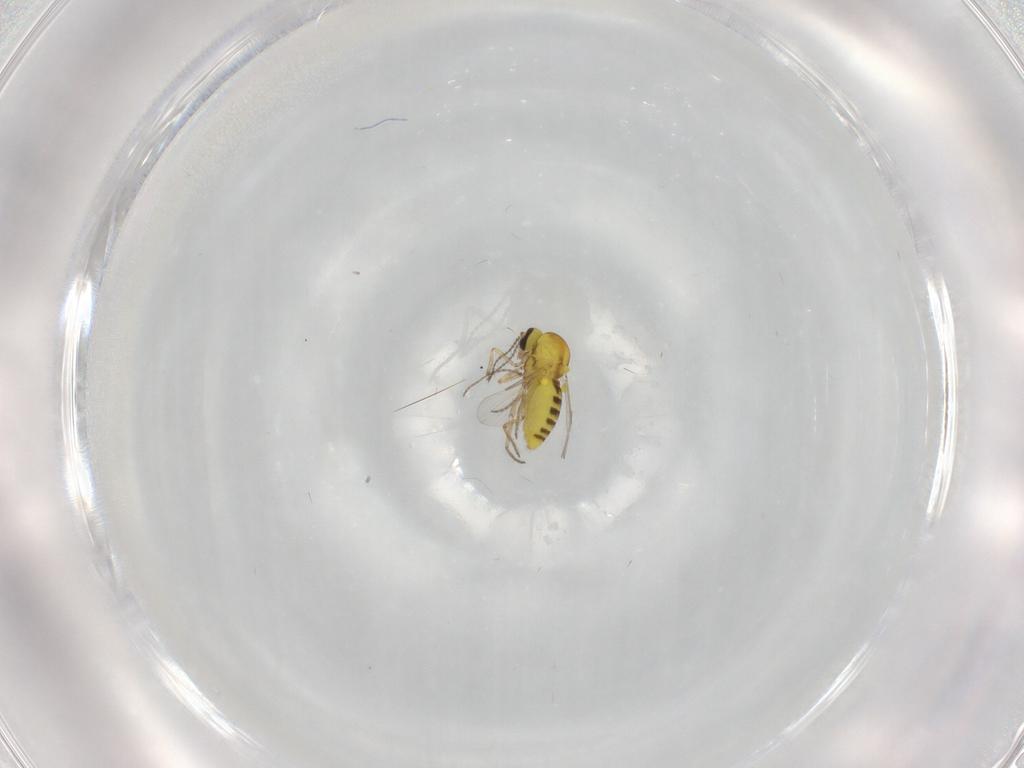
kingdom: Animalia
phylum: Arthropoda
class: Insecta
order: Diptera
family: Ceratopogonidae
